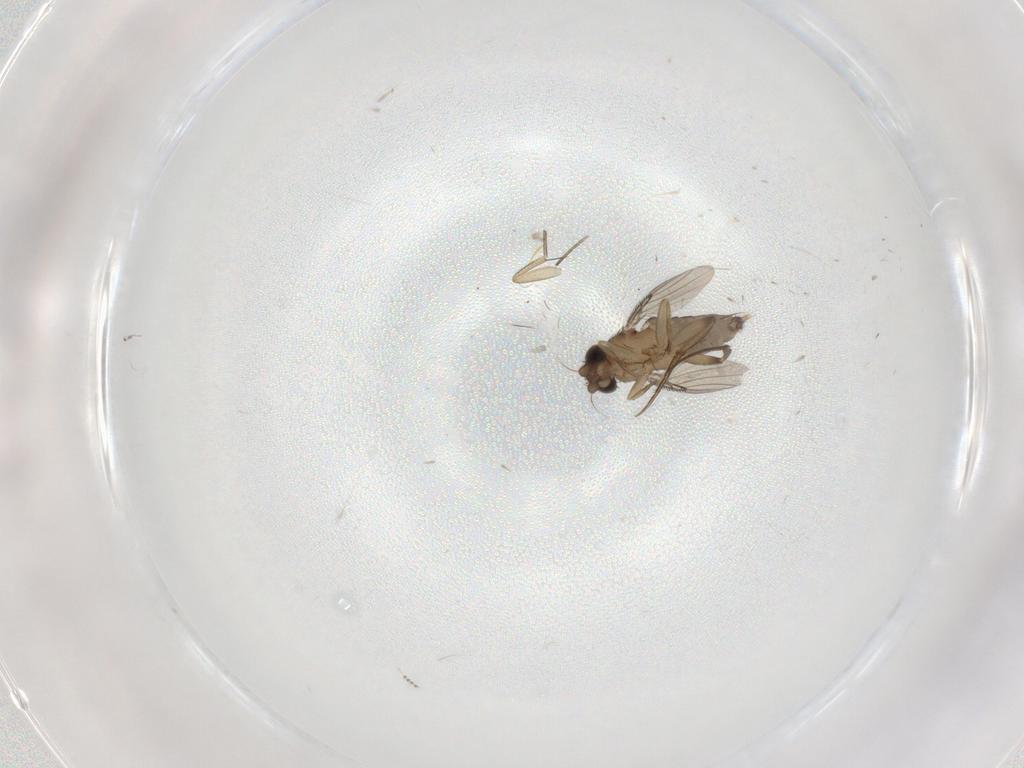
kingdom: Animalia
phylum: Arthropoda
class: Insecta
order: Diptera
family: Phoridae
